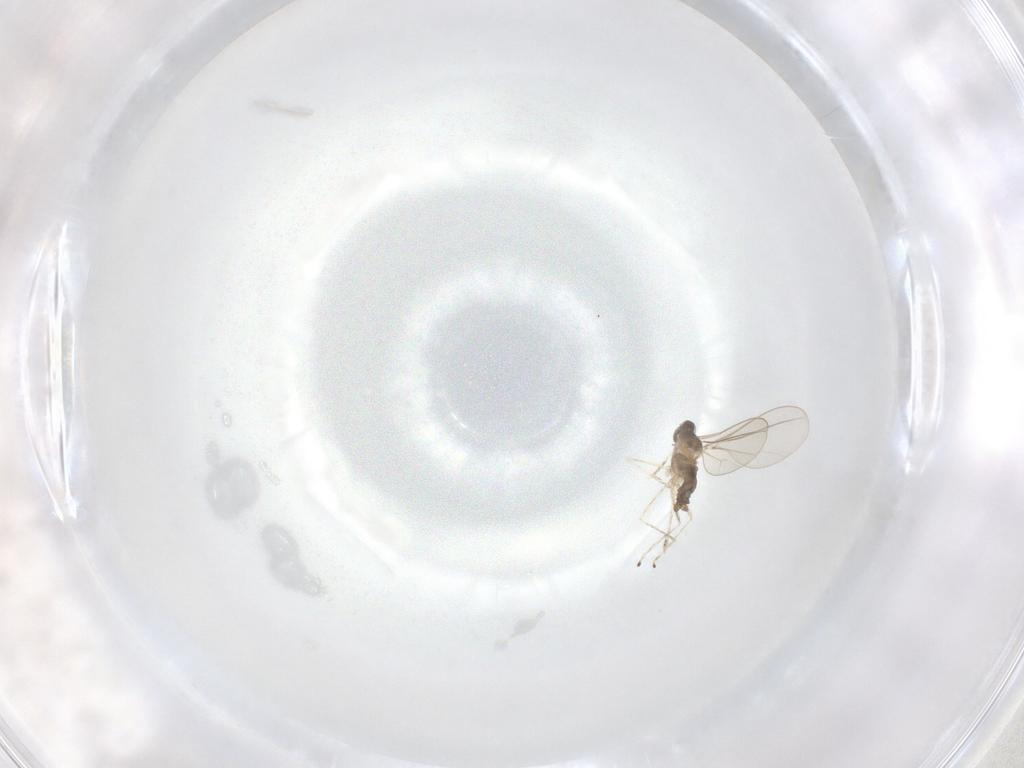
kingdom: Animalia
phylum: Arthropoda
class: Insecta
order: Diptera
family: Cecidomyiidae
